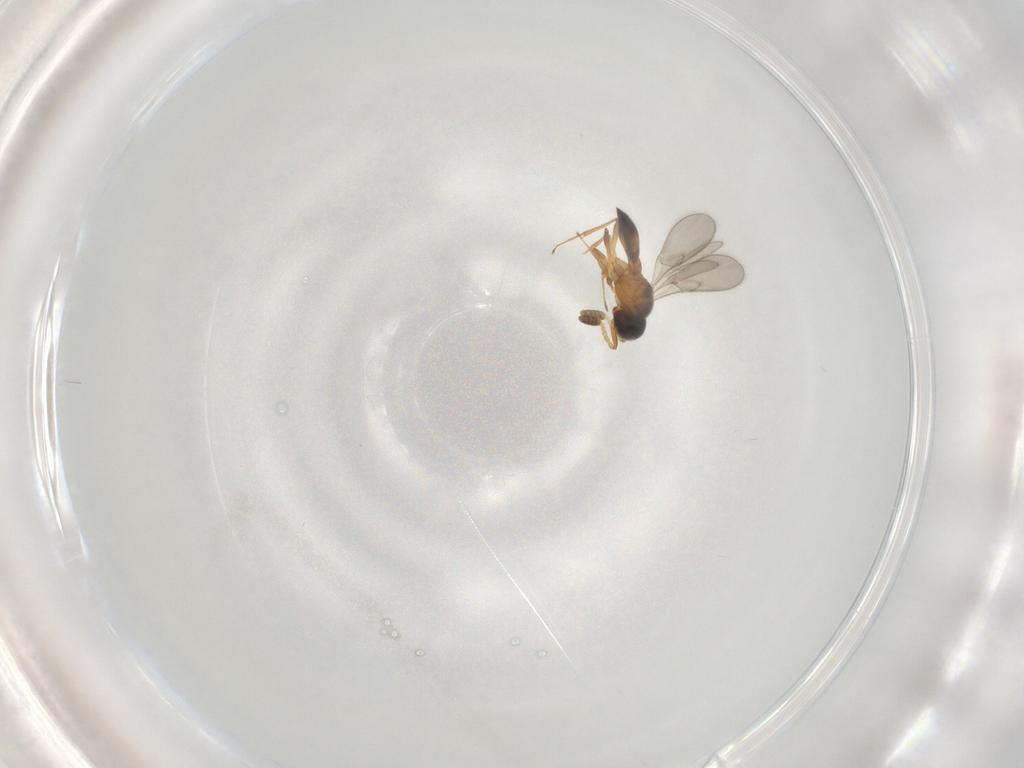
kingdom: Animalia
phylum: Arthropoda
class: Insecta
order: Hymenoptera
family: Scelionidae
